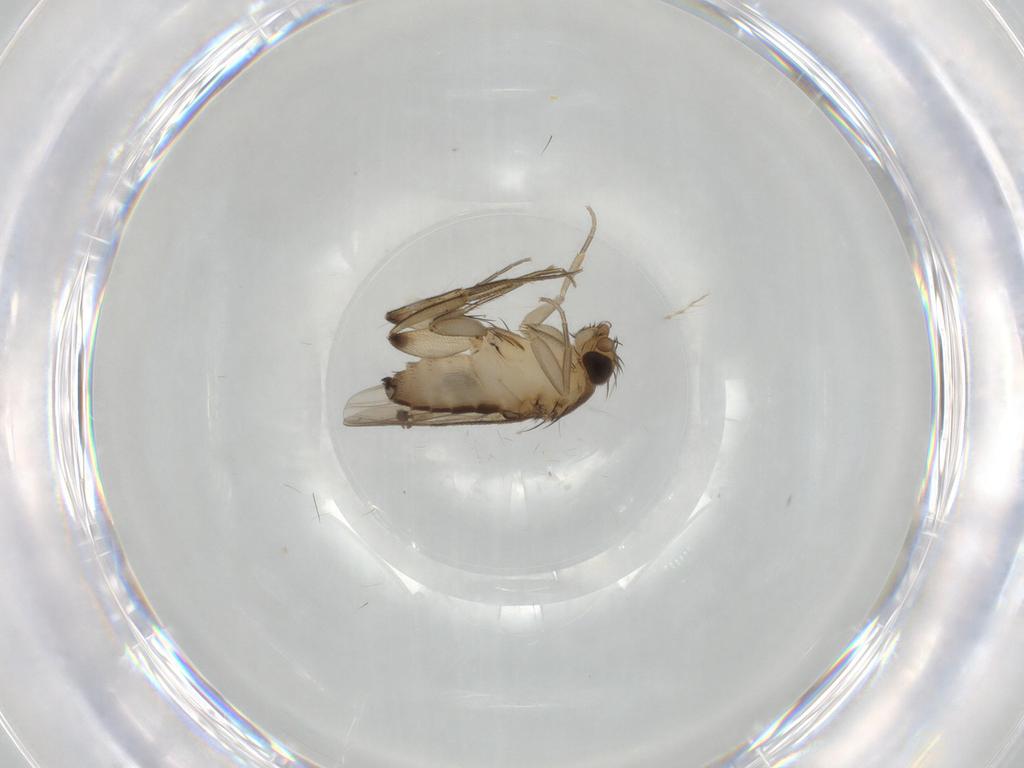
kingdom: Animalia
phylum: Arthropoda
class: Insecta
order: Diptera
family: Phoridae
